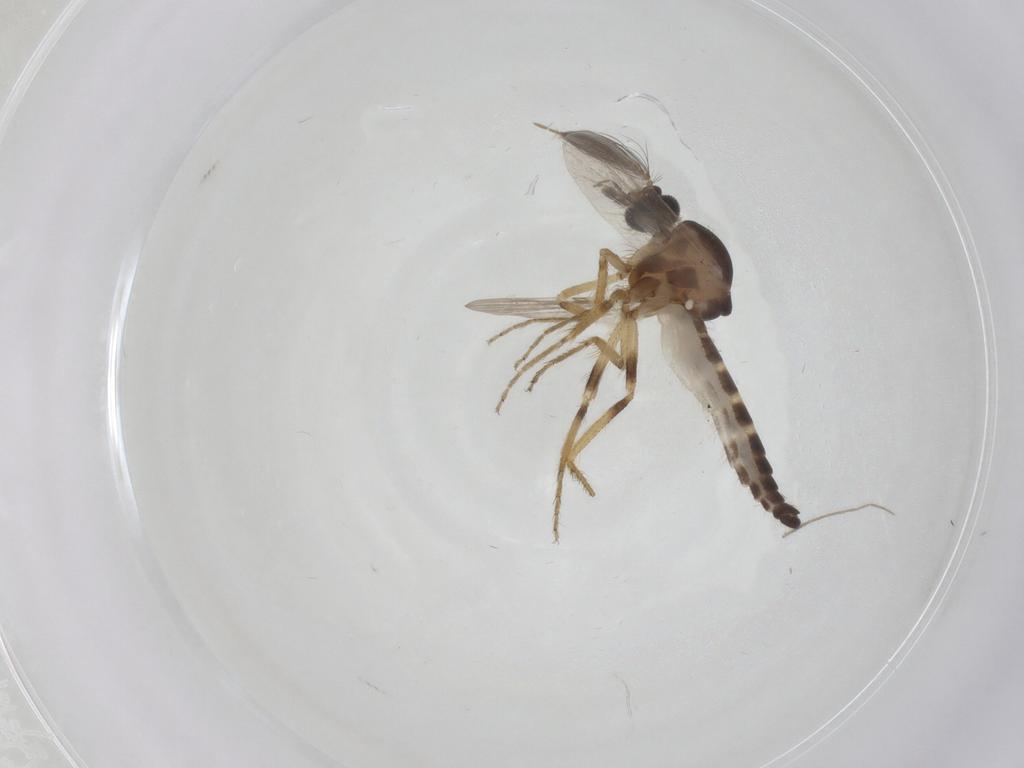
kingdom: Animalia
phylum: Arthropoda
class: Insecta
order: Diptera
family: Ceratopogonidae
